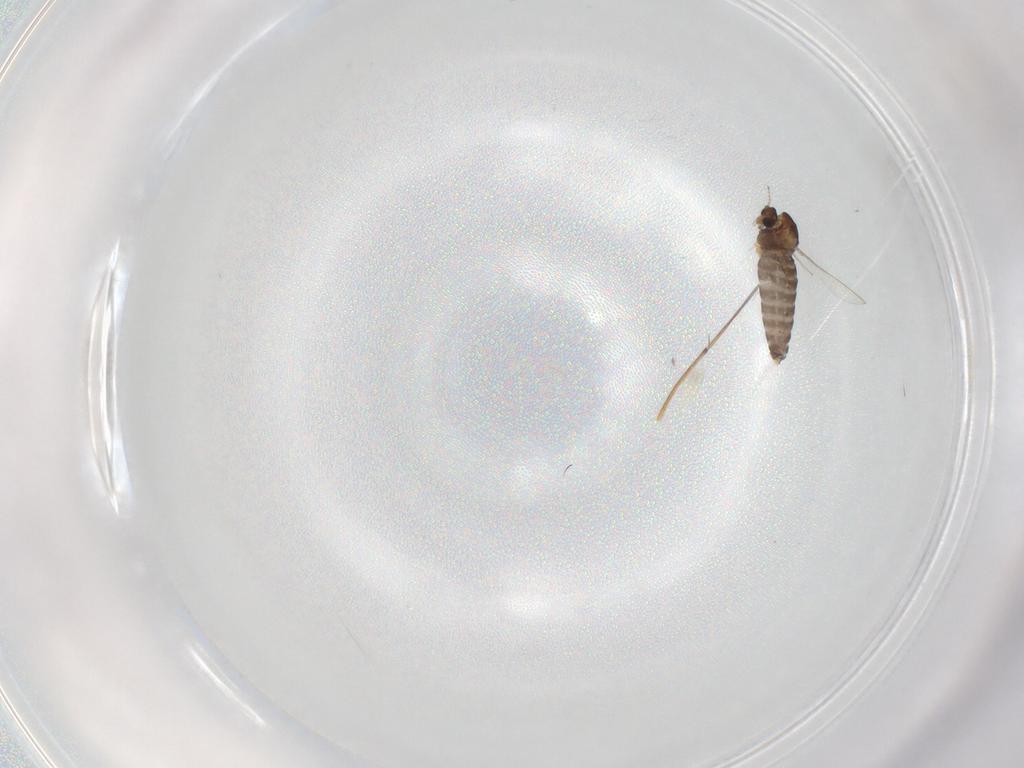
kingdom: Animalia
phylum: Arthropoda
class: Insecta
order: Diptera
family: Chironomidae
